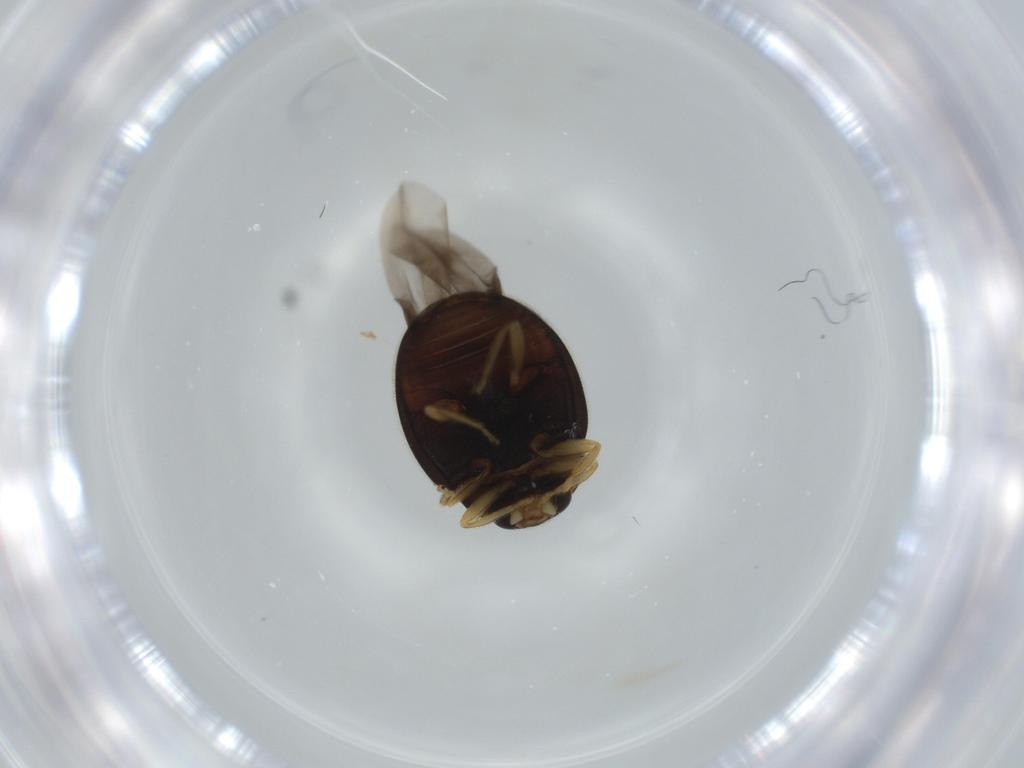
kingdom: Animalia
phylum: Arthropoda
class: Insecta
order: Coleoptera
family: Coccinellidae
